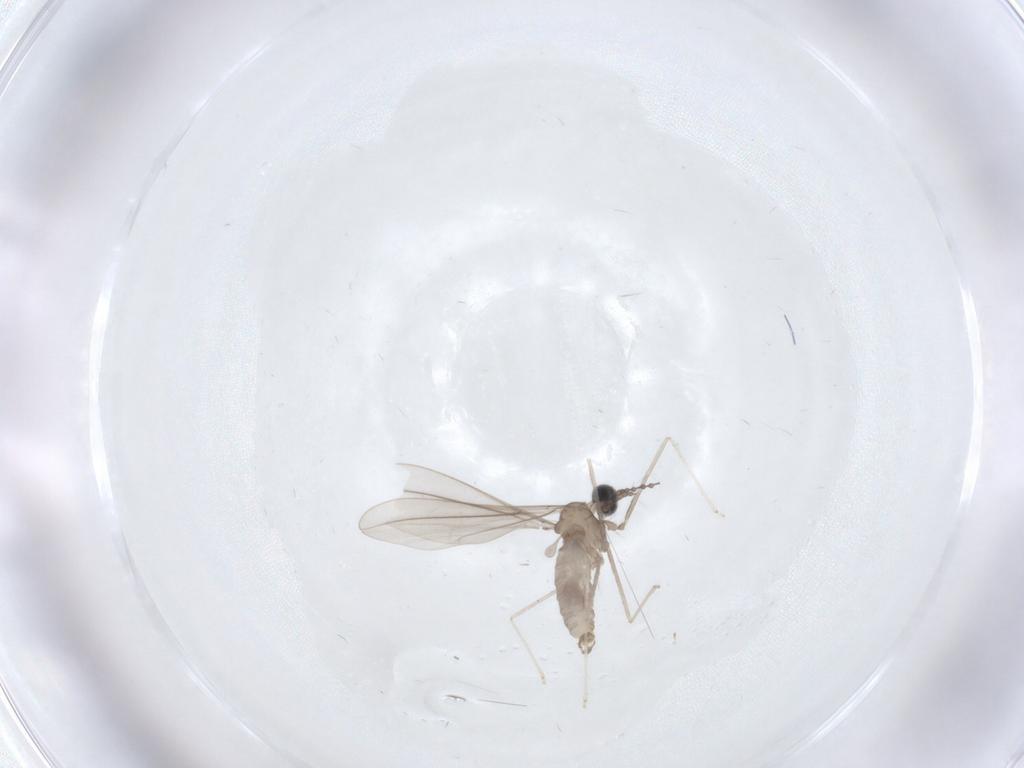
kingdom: Animalia
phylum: Arthropoda
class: Insecta
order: Diptera
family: Cecidomyiidae
